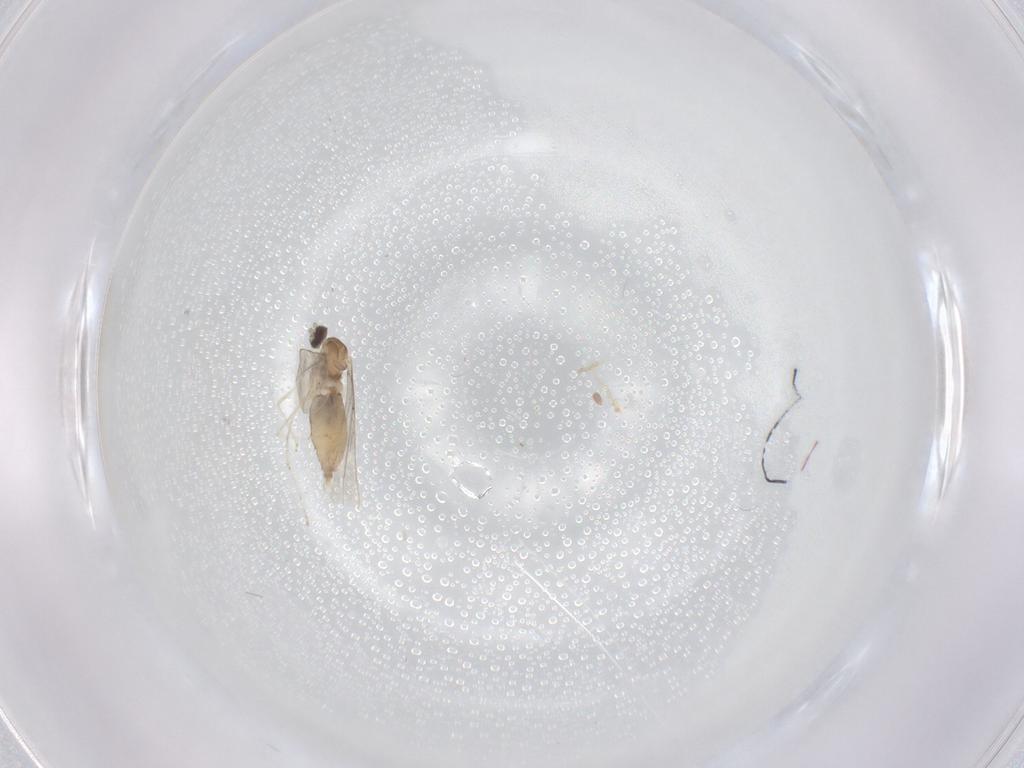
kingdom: Animalia
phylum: Arthropoda
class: Insecta
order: Diptera
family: Cecidomyiidae
